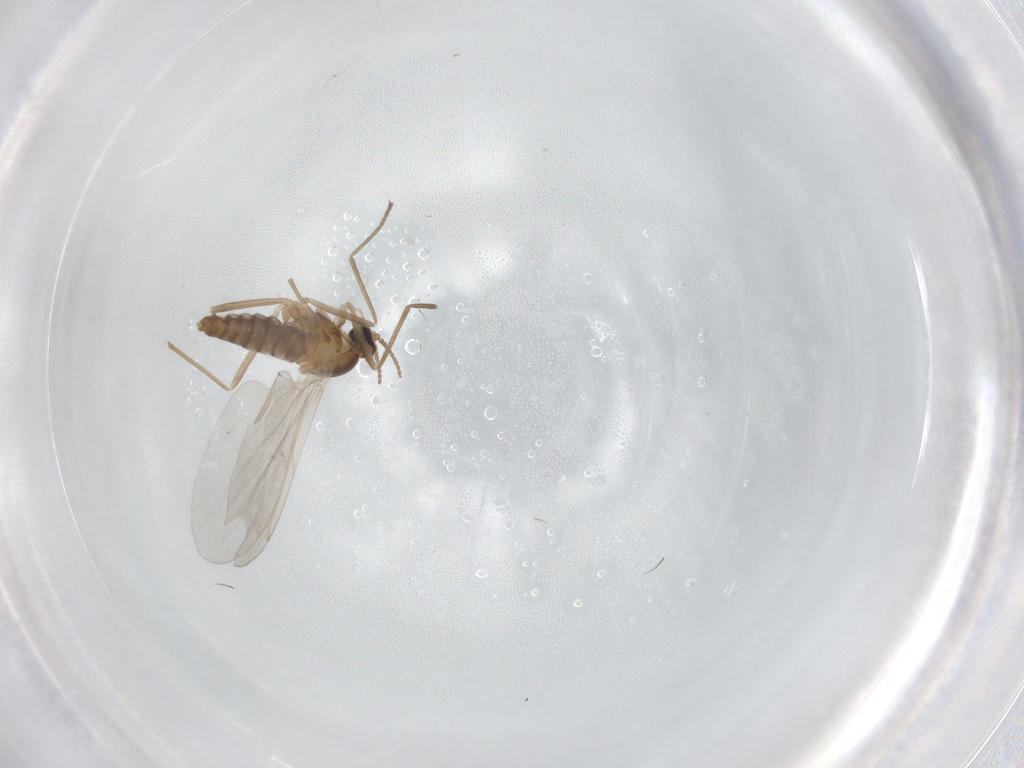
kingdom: Animalia
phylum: Arthropoda
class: Insecta
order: Diptera
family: Cecidomyiidae
